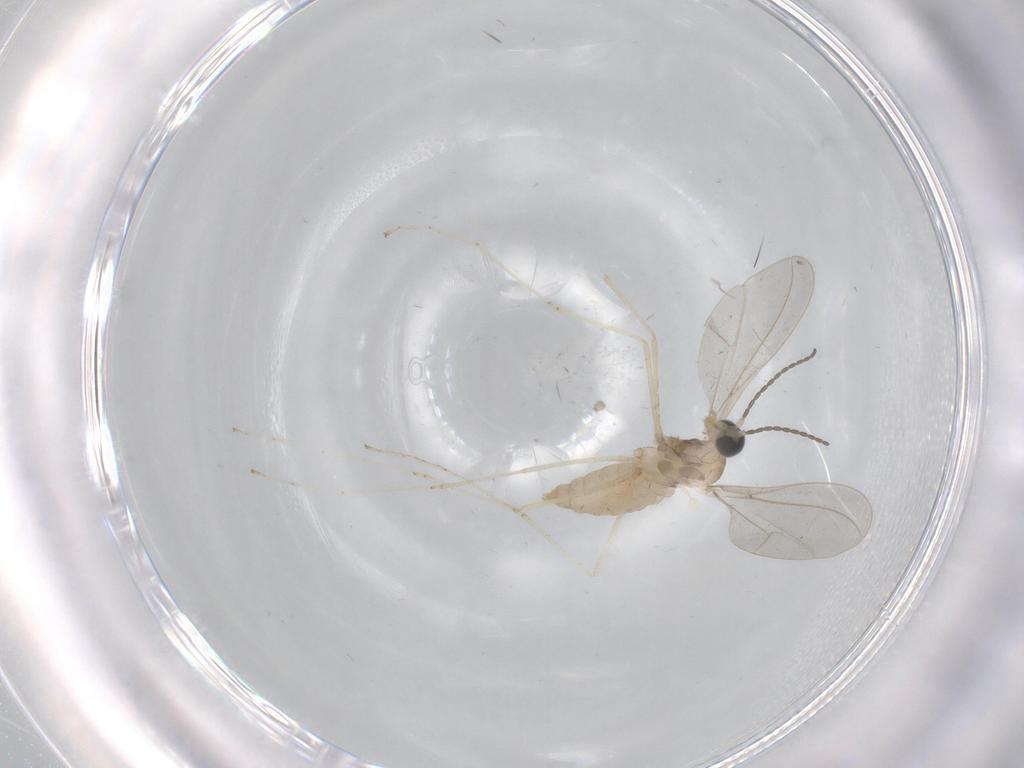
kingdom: Animalia
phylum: Arthropoda
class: Insecta
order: Diptera
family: Cecidomyiidae
